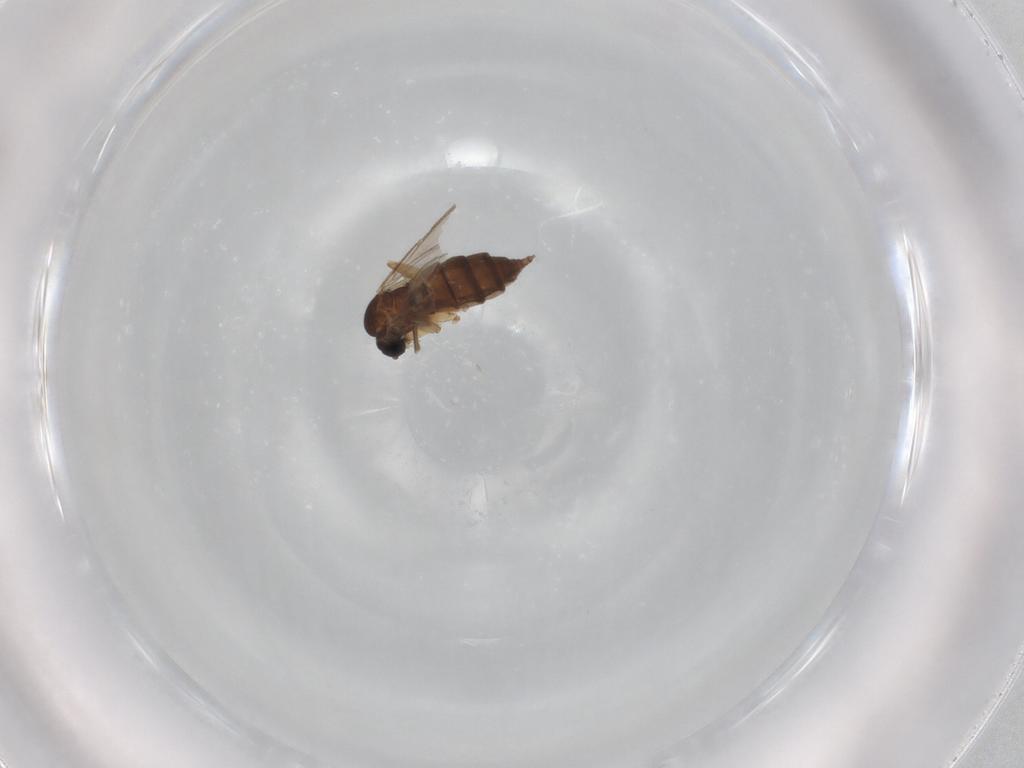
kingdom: Animalia
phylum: Arthropoda
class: Insecta
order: Diptera
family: Sciaridae
